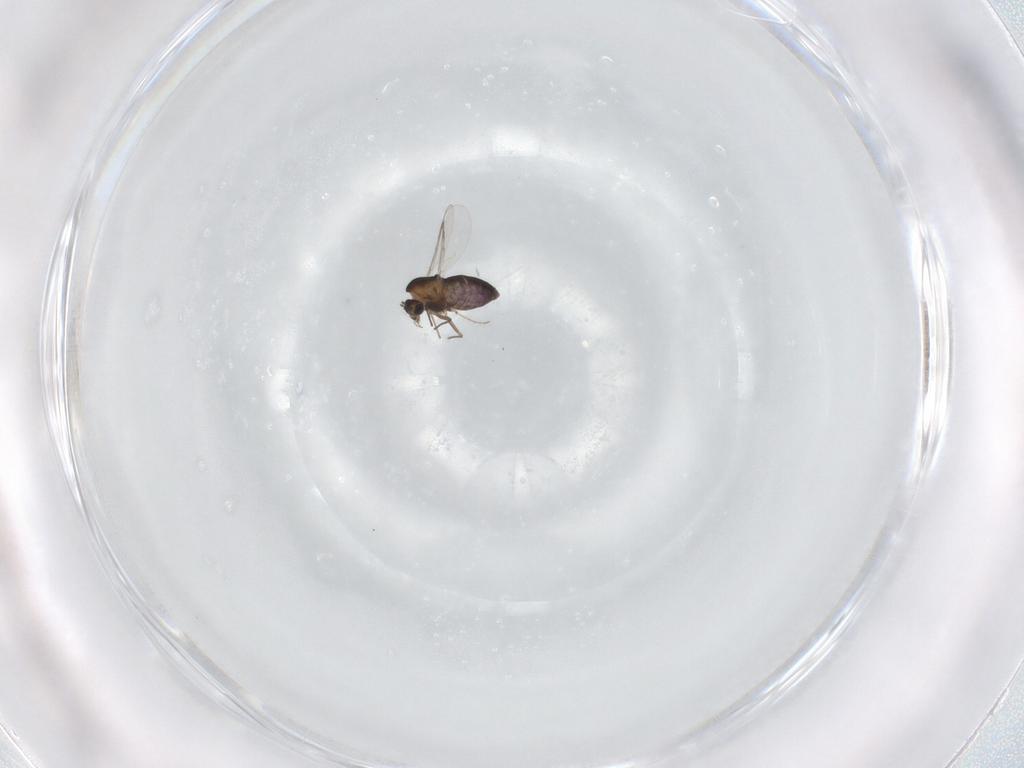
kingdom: Animalia
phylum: Arthropoda
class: Insecta
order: Diptera
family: Chironomidae
